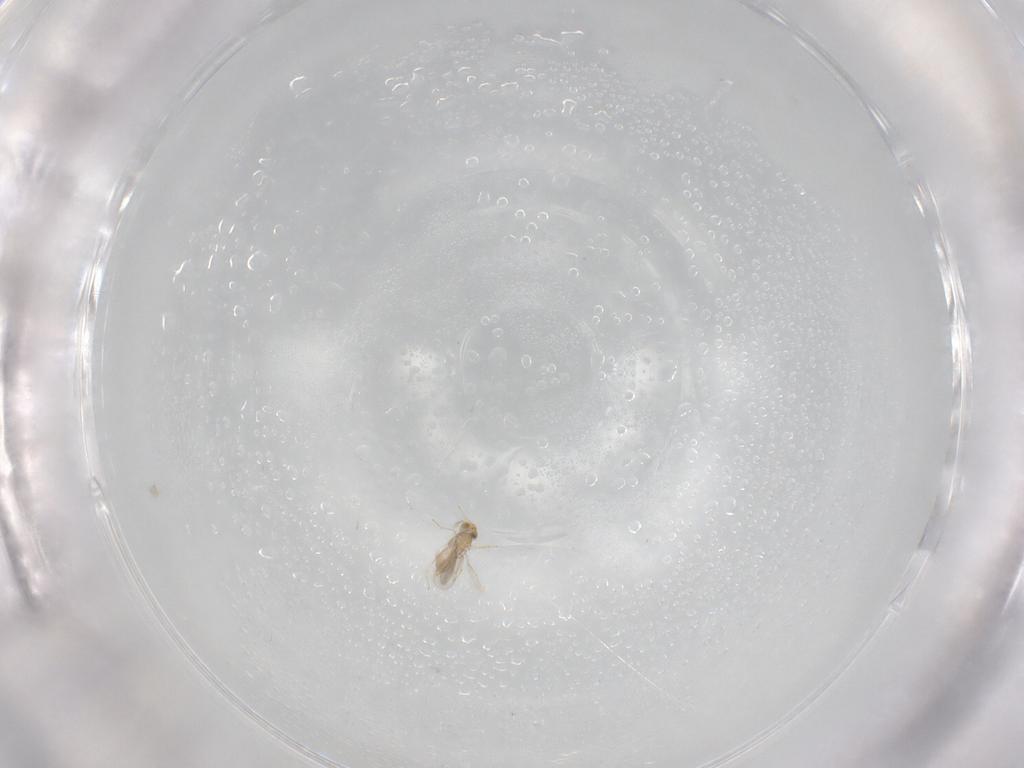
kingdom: Animalia
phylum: Arthropoda
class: Insecta
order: Hymenoptera
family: Aphelinidae
